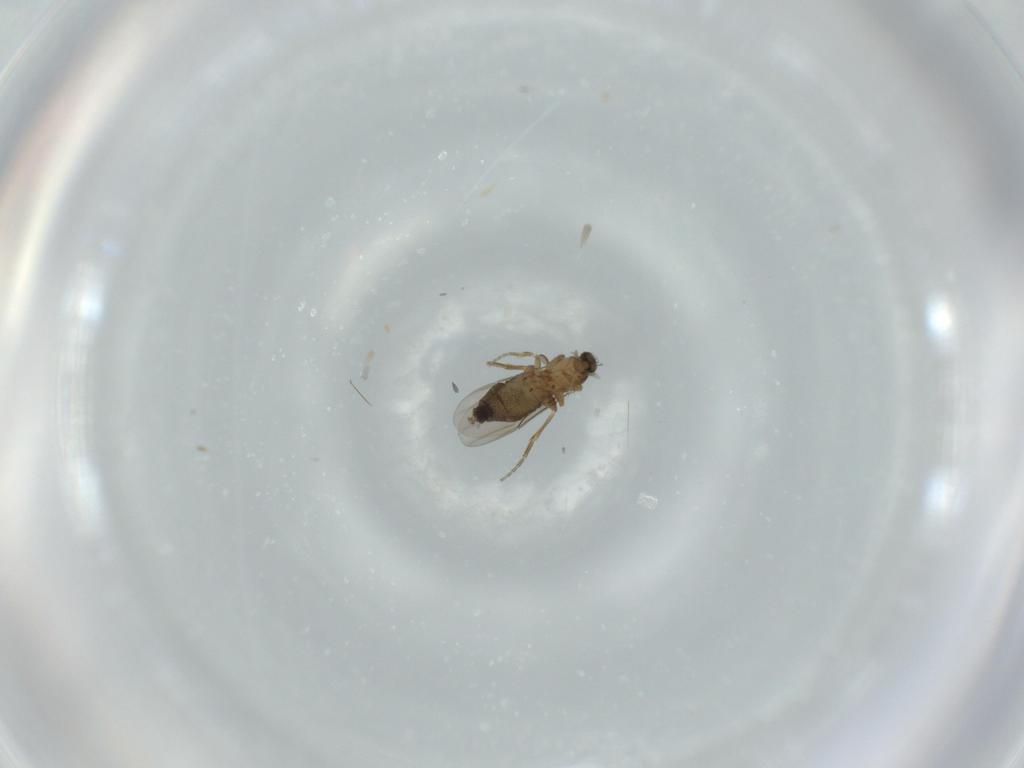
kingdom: Animalia
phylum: Arthropoda
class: Insecta
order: Diptera
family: Phoridae
